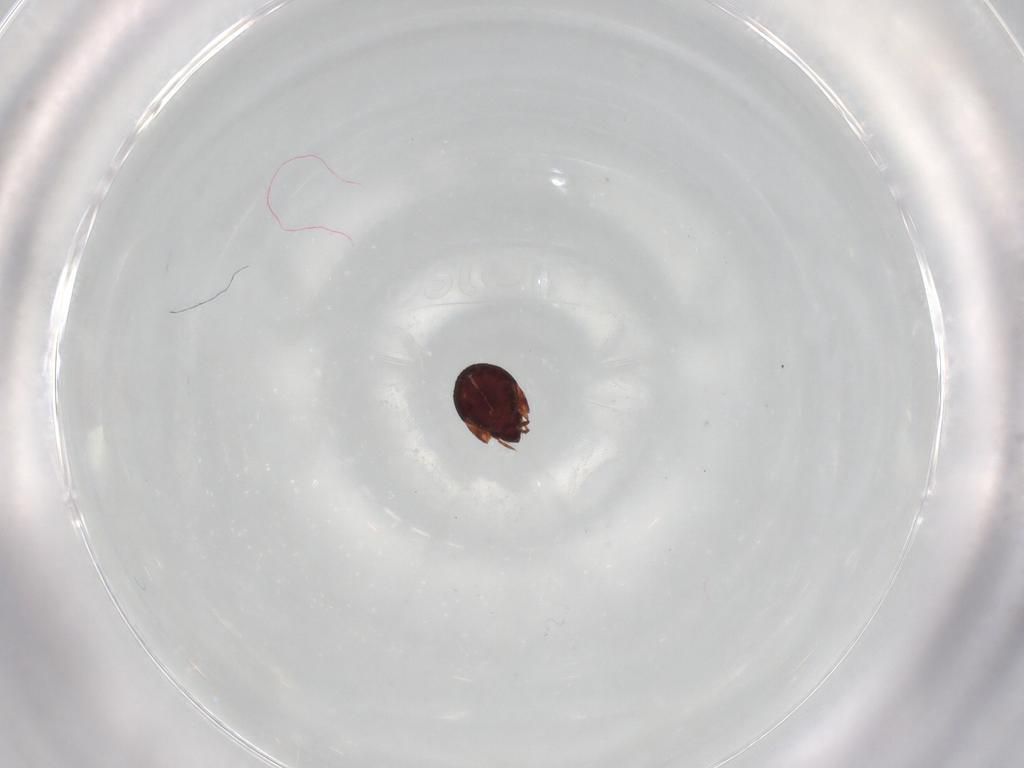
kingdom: Animalia
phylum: Arthropoda
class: Arachnida
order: Sarcoptiformes
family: Humerobatidae
